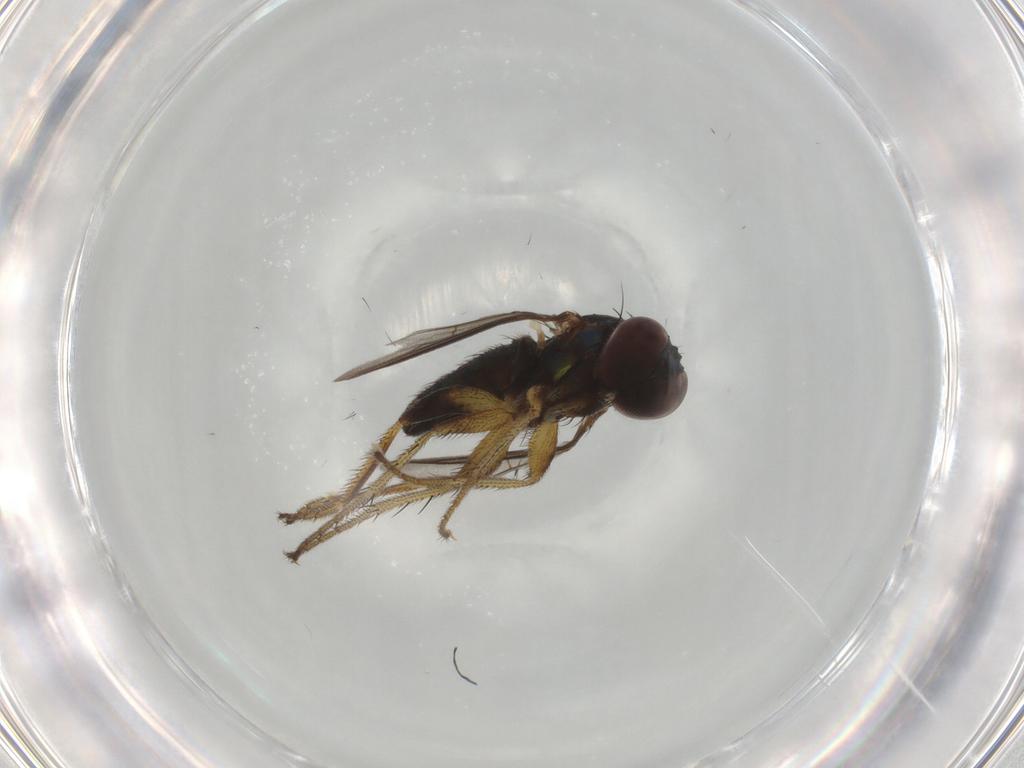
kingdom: Animalia
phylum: Arthropoda
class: Insecta
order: Diptera
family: Dolichopodidae
